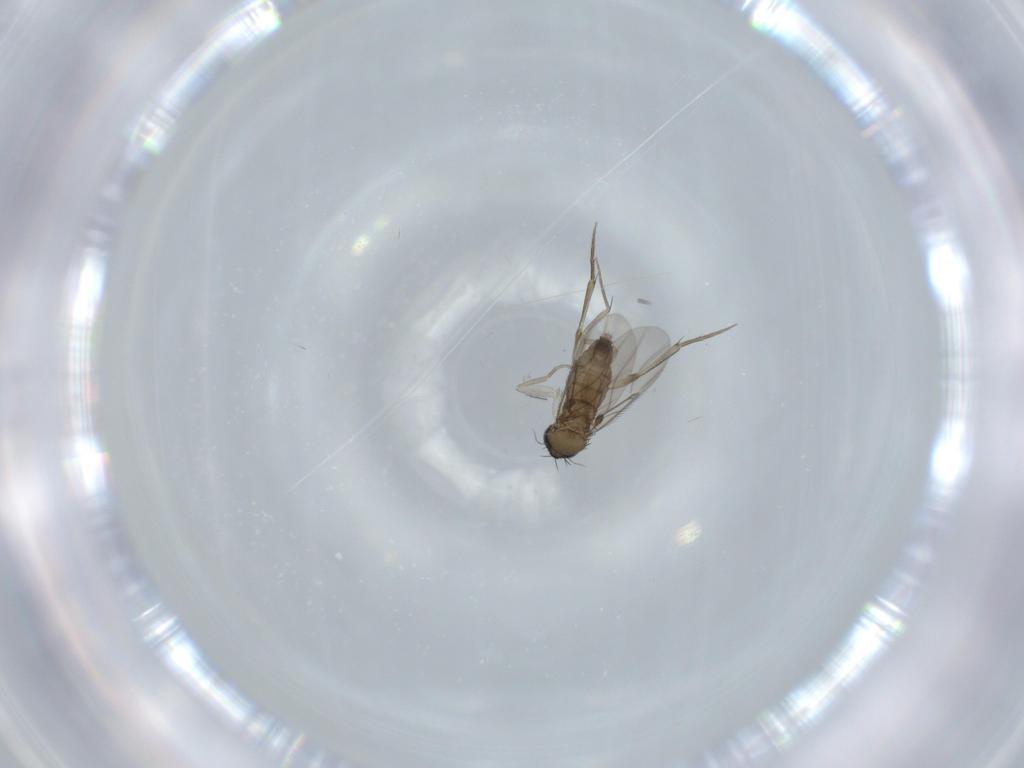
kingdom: Animalia
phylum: Arthropoda
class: Insecta
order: Diptera
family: Phoridae
